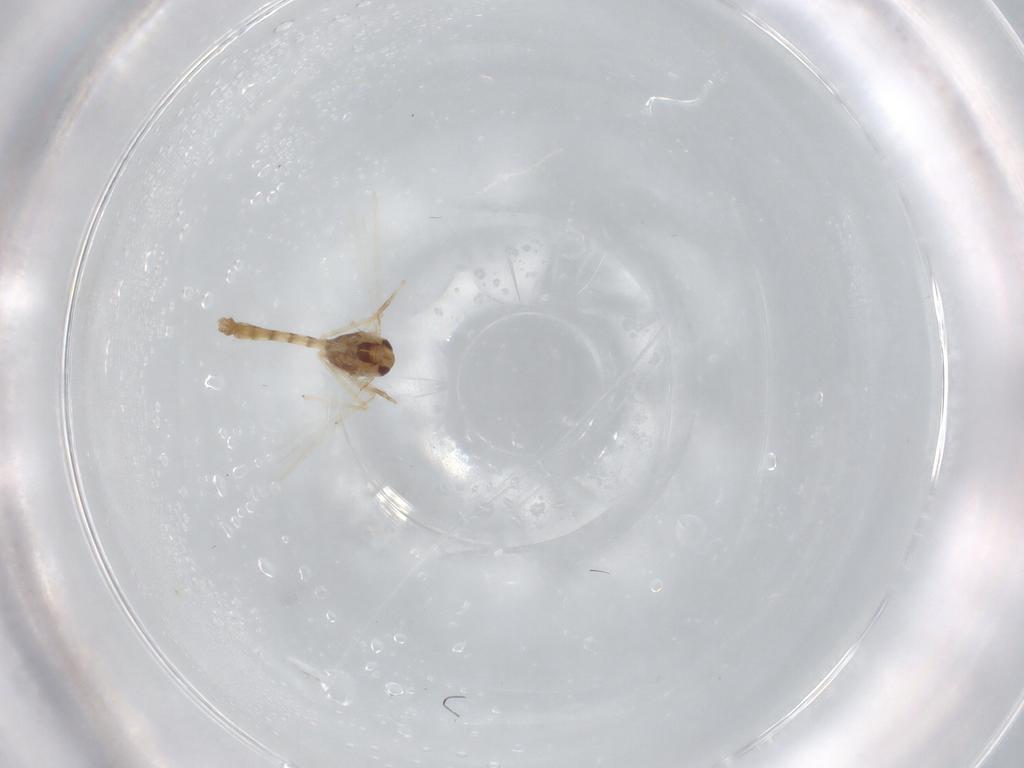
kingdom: Animalia
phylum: Arthropoda
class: Insecta
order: Diptera
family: Chironomidae
